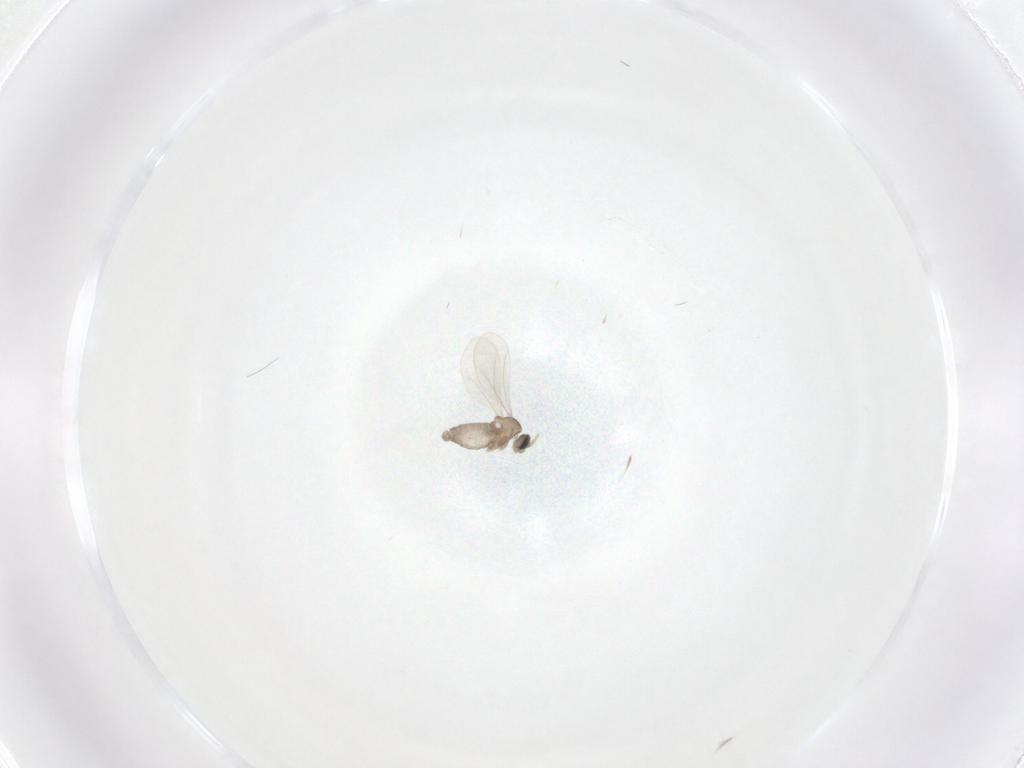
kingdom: Animalia
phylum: Arthropoda
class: Insecta
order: Diptera
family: Cecidomyiidae
